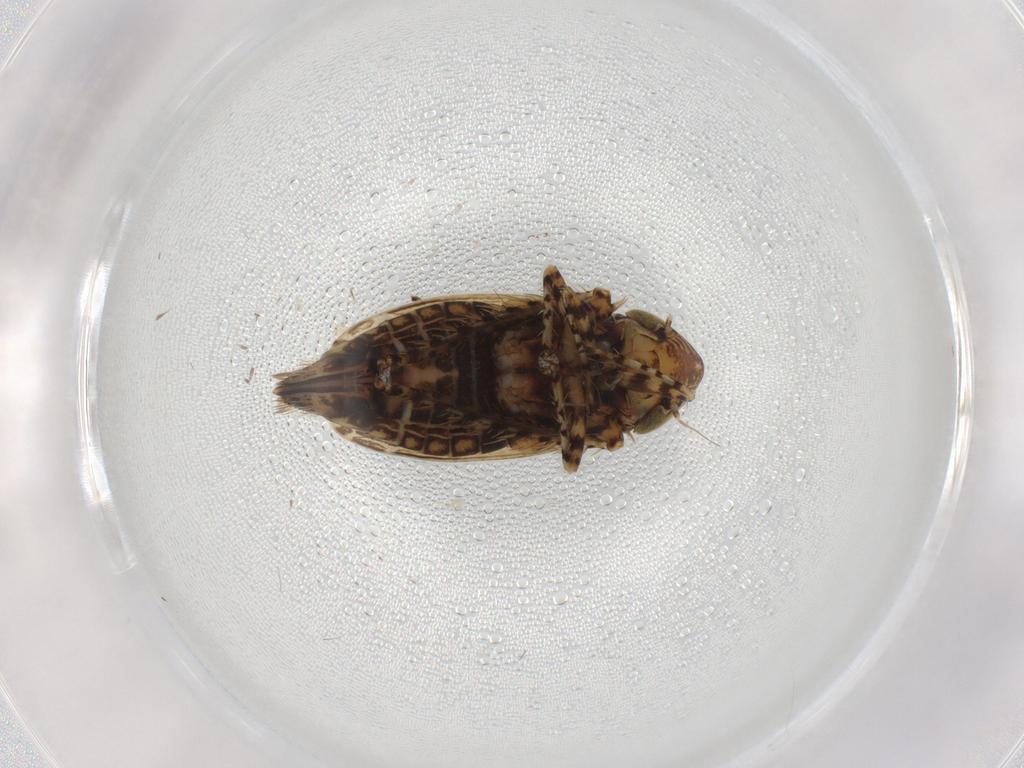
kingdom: Animalia
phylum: Arthropoda
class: Insecta
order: Hemiptera
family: Cicadellidae
